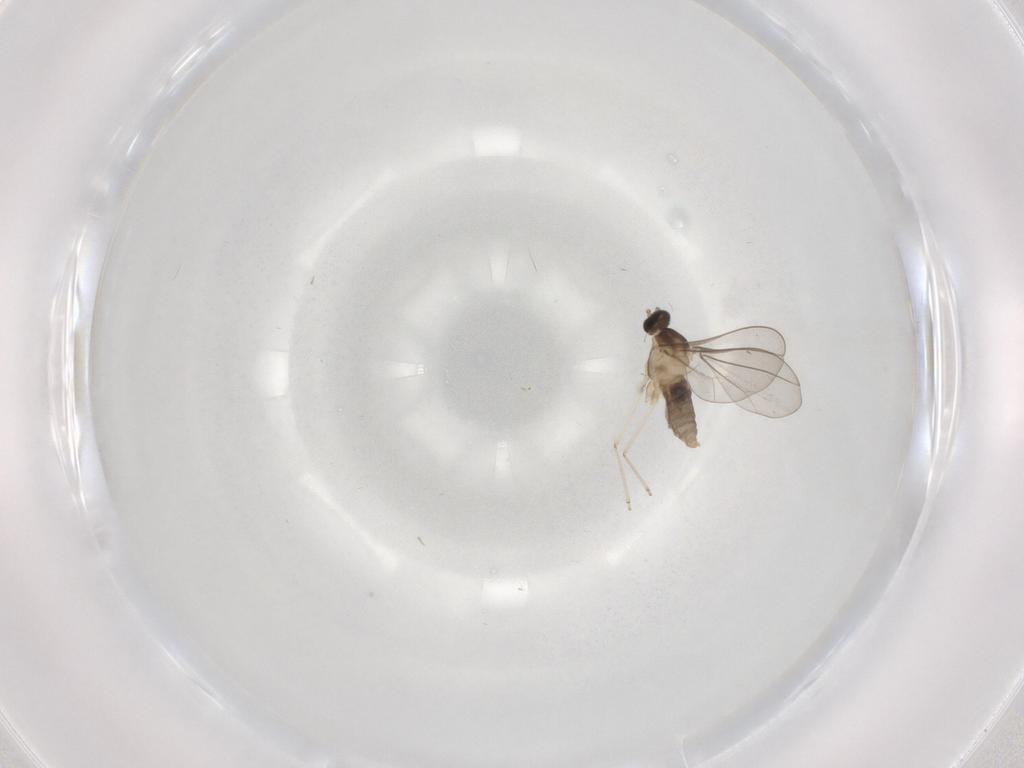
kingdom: Animalia
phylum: Arthropoda
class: Insecta
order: Diptera
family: Cecidomyiidae
